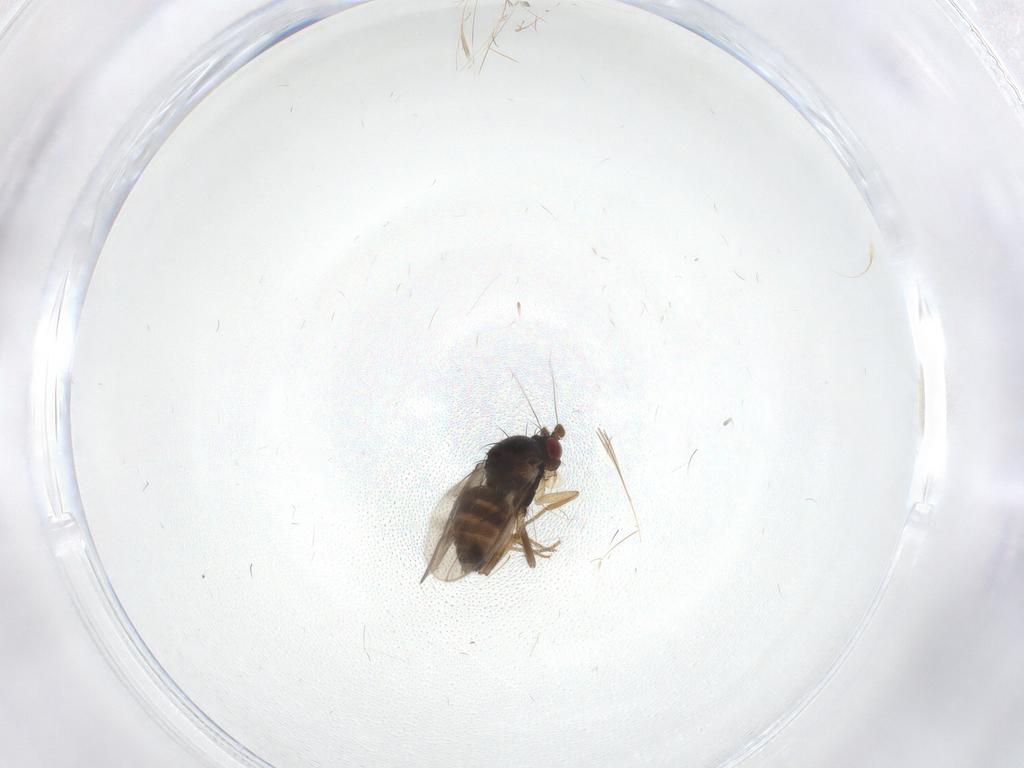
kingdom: Animalia
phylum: Arthropoda
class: Insecta
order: Diptera
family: Sphaeroceridae
